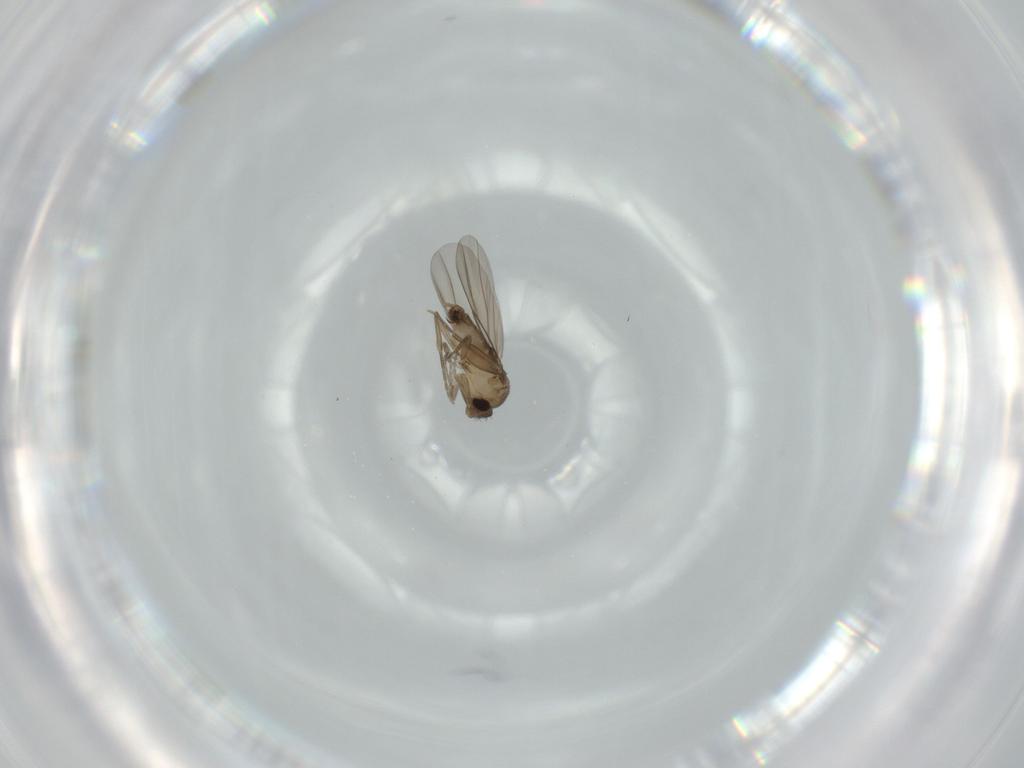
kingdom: Animalia
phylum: Arthropoda
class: Insecta
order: Diptera
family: Phoridae
